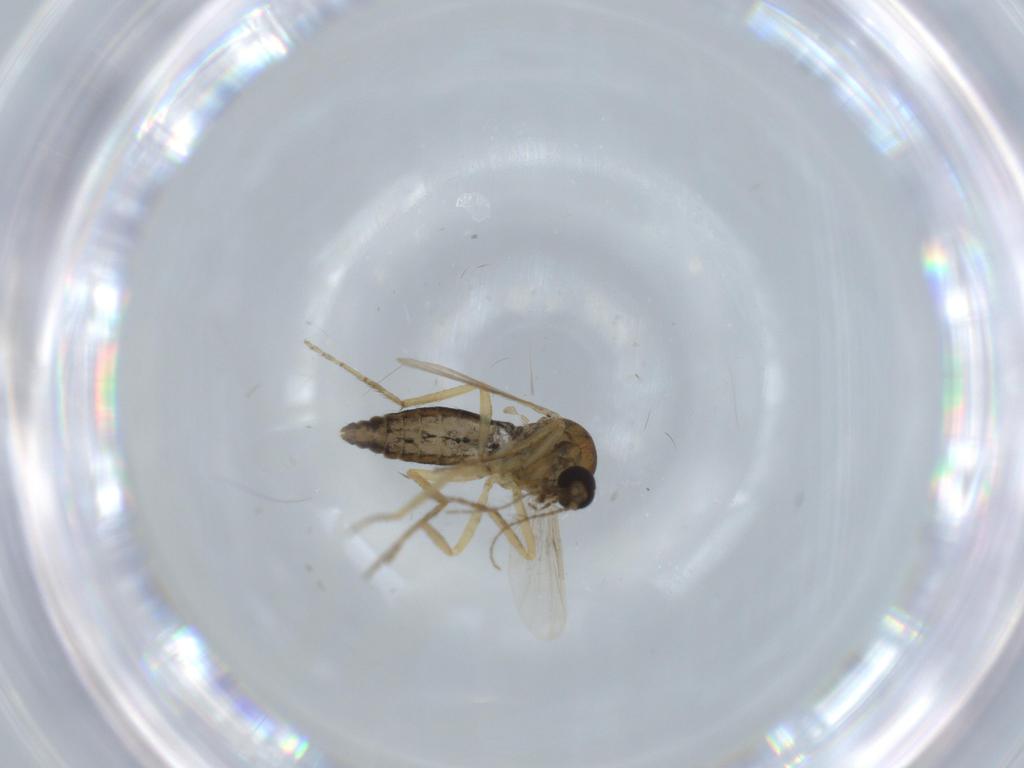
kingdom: Animalia
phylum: Arthropoda
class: Insecta
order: Diptera
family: Ceratopogonidae
